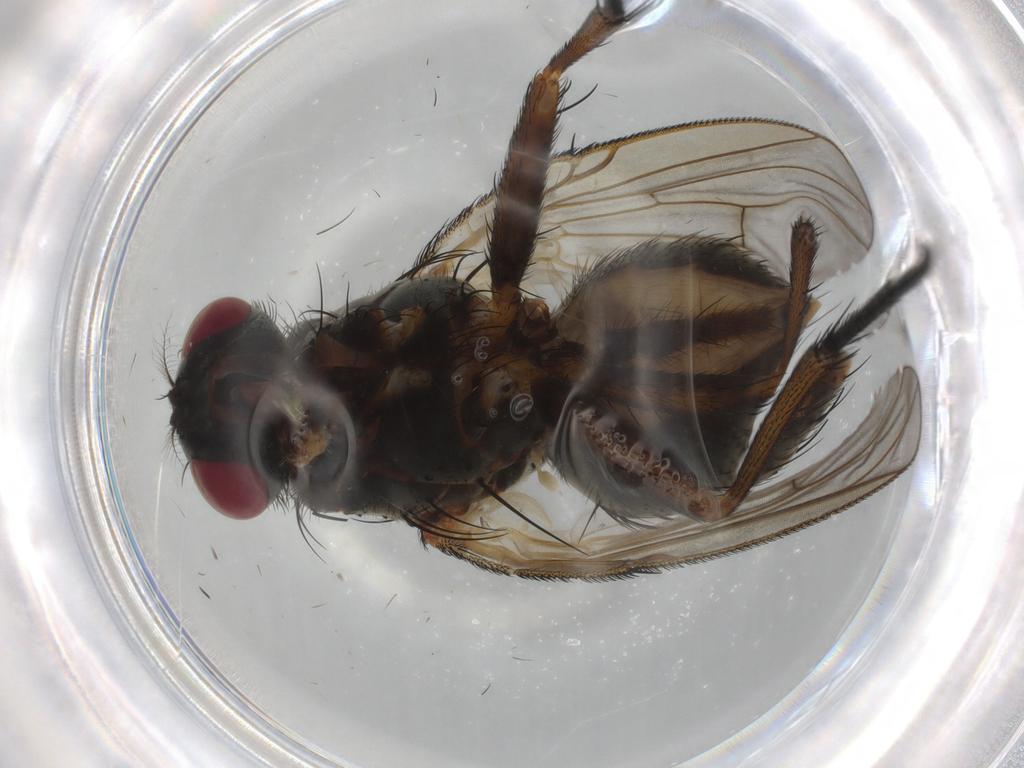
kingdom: Animalia
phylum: Arthropoda
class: Insecta
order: Diptera
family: Muscidae
